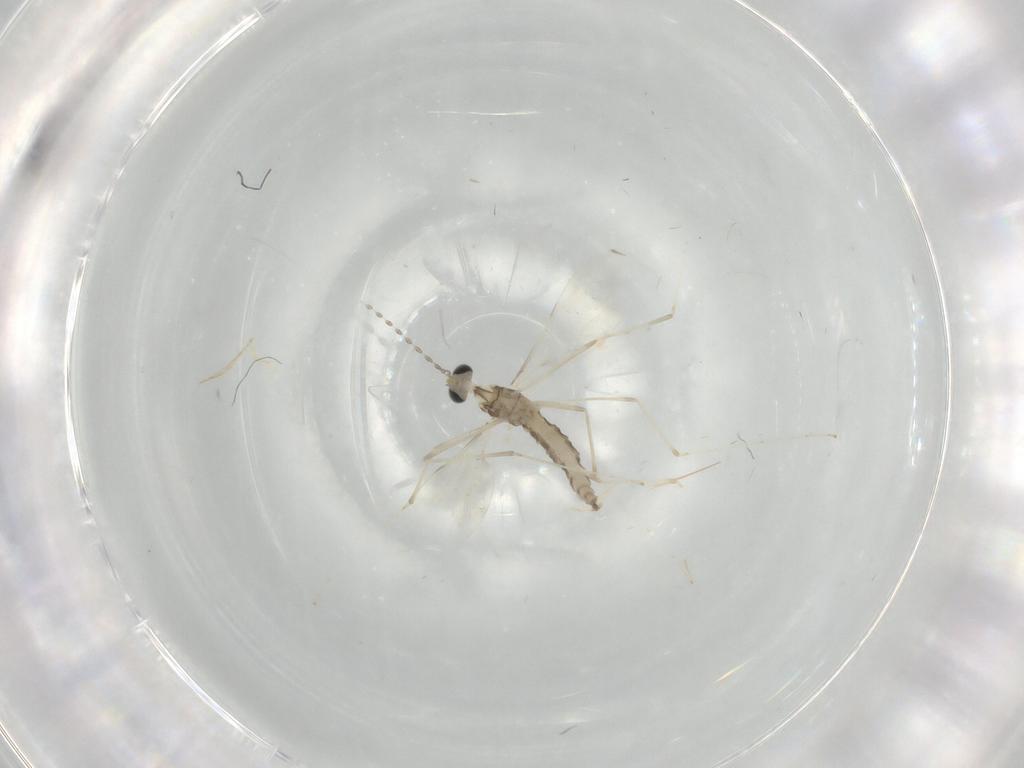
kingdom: Animalia
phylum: Arthropoda
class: Insecta
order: Diptera
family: Cecidomyiidae
